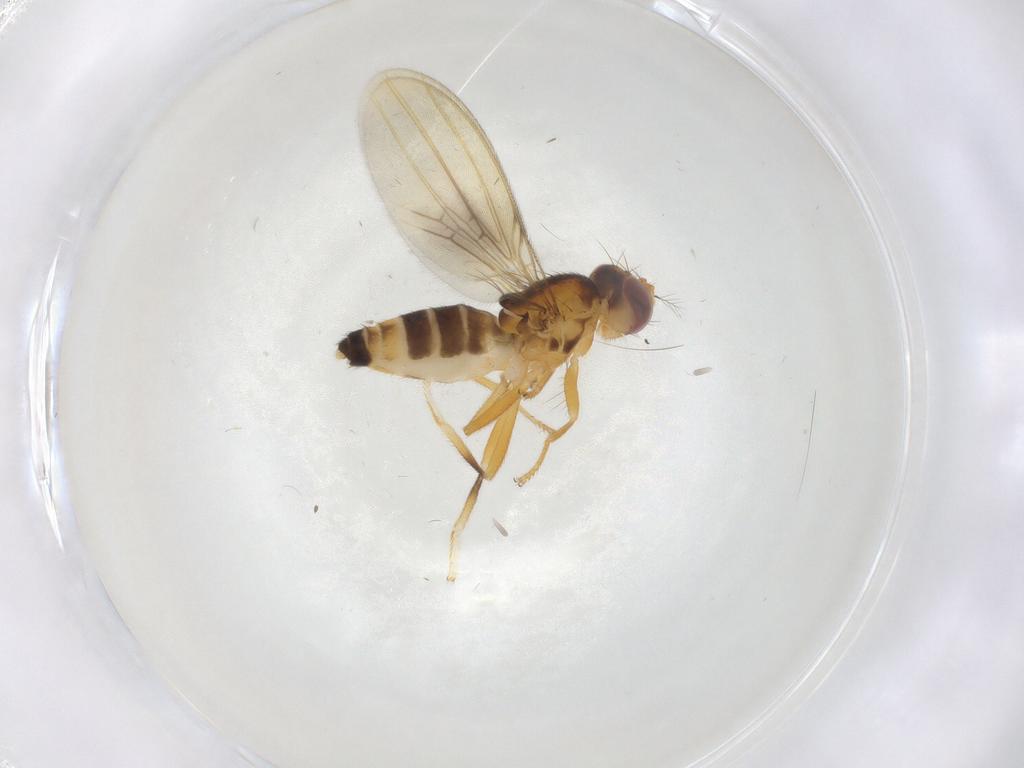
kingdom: Animalia
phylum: Arthropoda
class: Insecta
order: Diptera
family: Periscelididae
